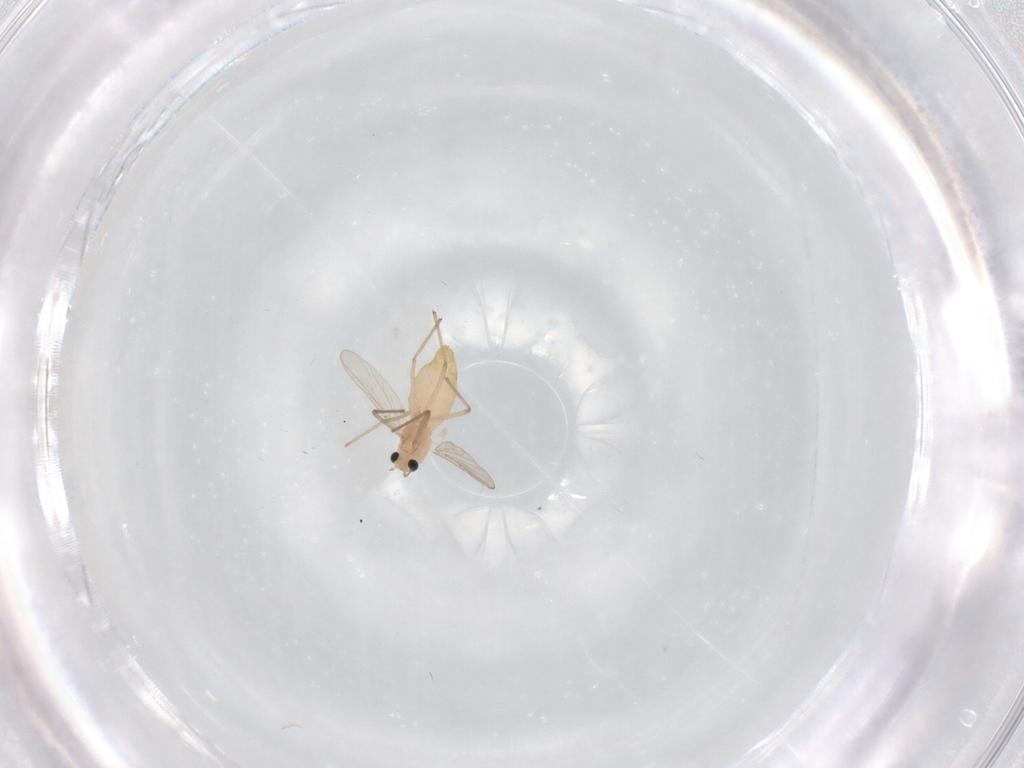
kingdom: Animalia
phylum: Arthropoda
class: Insecta
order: Diptera
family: Chironomidae
